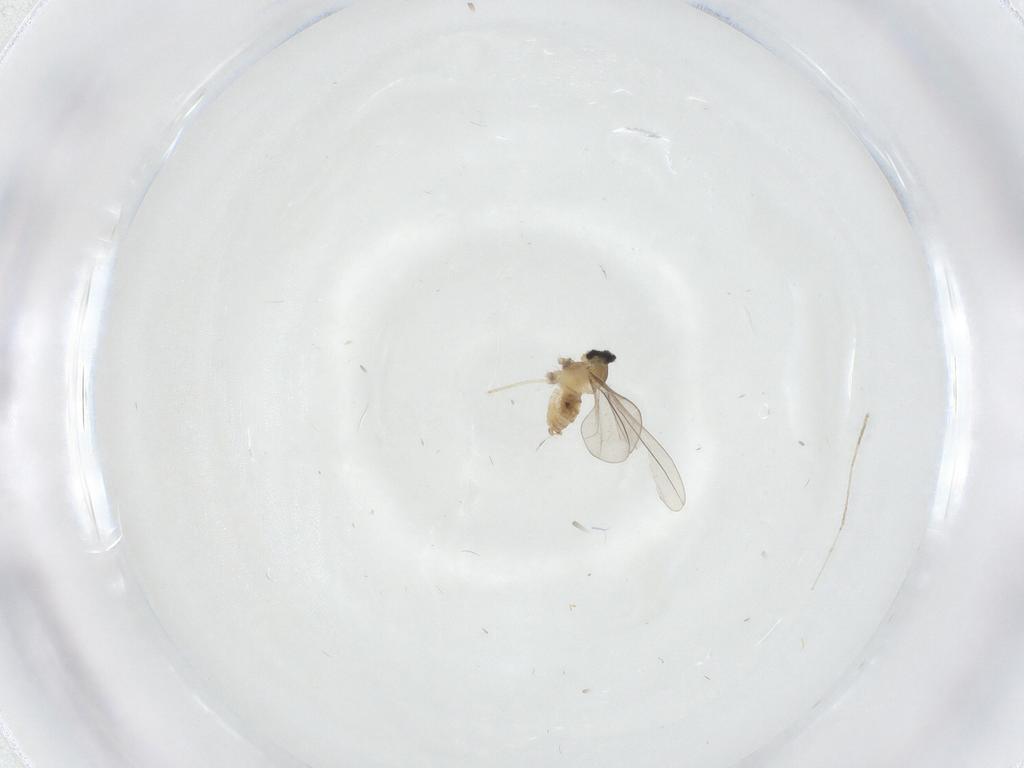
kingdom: Animalia
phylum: Arthropoda
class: Insecta
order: Diptera
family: Cecidomyiidae
